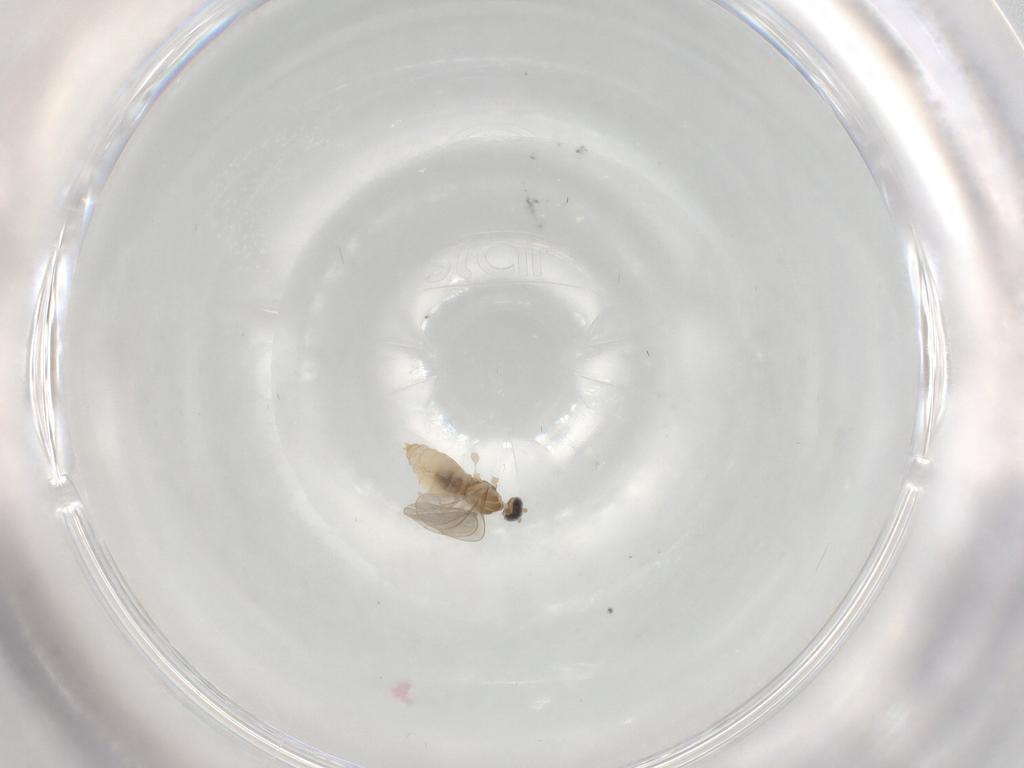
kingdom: Animalia
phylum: Arthropoda
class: Insecta
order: Diptera
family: Cecidomyiidae
